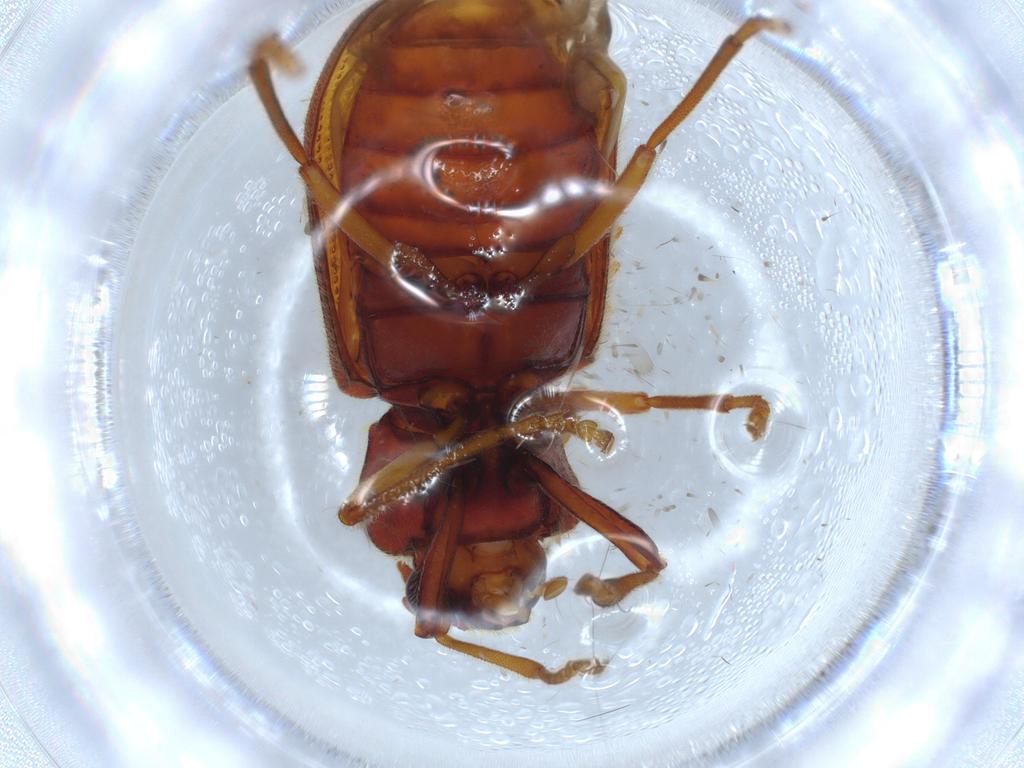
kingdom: Animalia
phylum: Arthropoda
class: Insecta
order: Coleoptera
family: Cerophytidae
